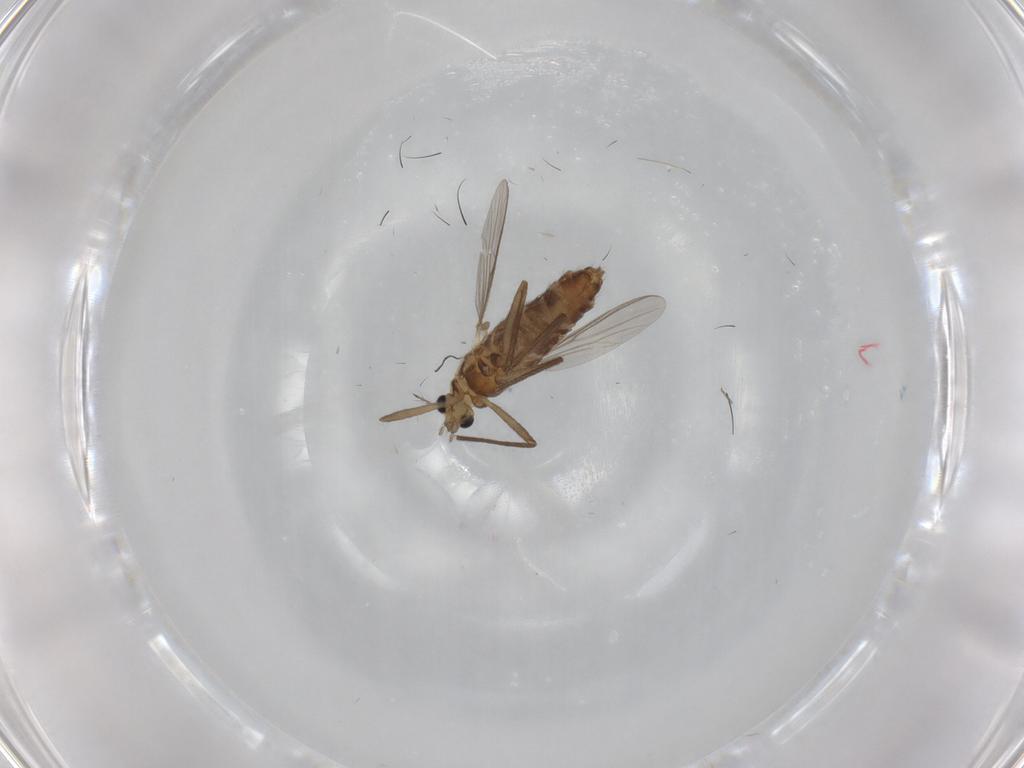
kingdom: Animalia
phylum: Arthropoda
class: Insecta
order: Diptera
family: Chironomidae
